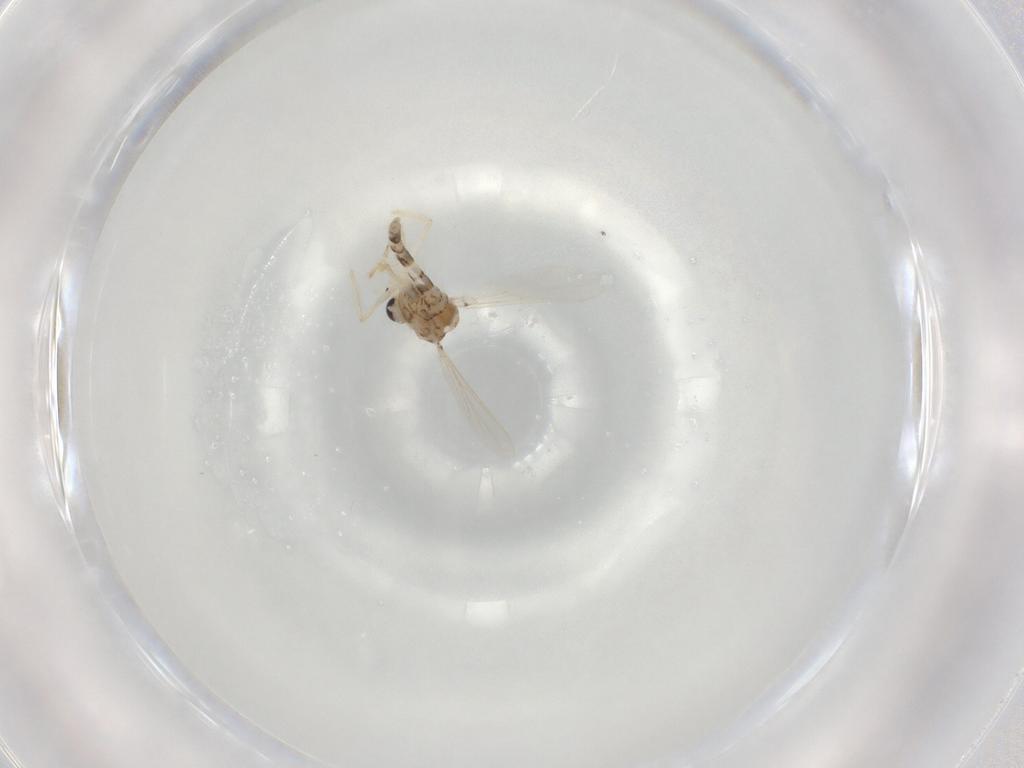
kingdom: Animalia
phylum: Arthropoda
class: Insecta
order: Diptera
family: Chironomidae
